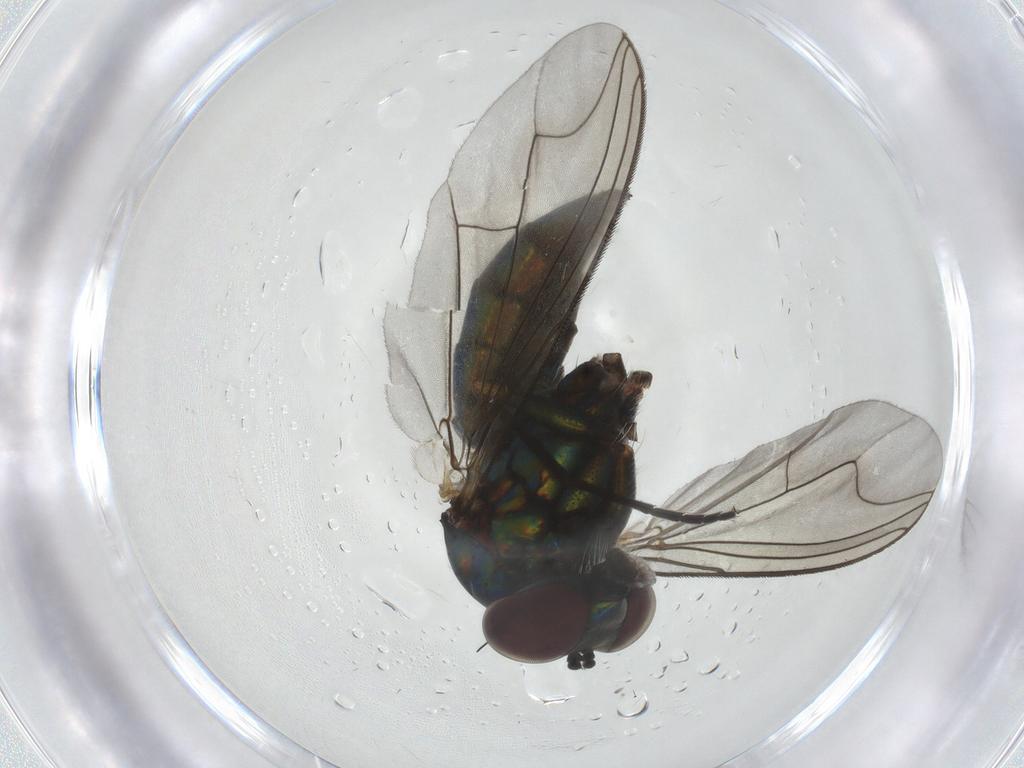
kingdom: Animalia
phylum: Arthropoda
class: Insecta
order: Diptera
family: Dolichopodidae
